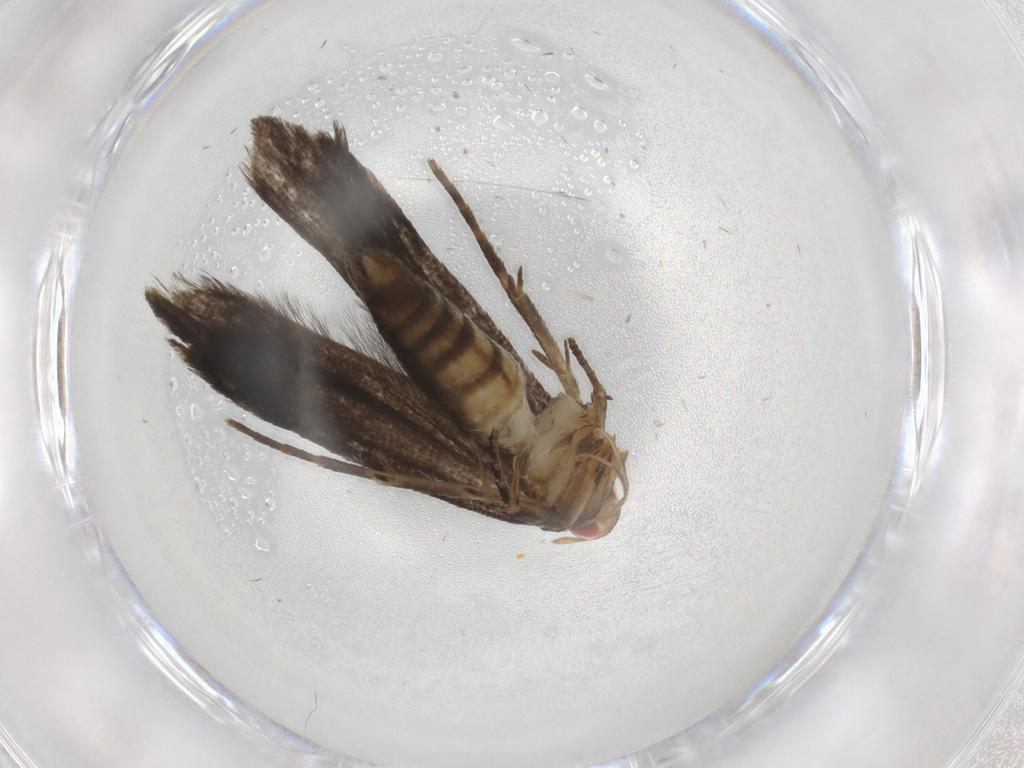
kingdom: Animalia
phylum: Arthropoda
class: Insecta
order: Lepidoptera
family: Gelechiidae
